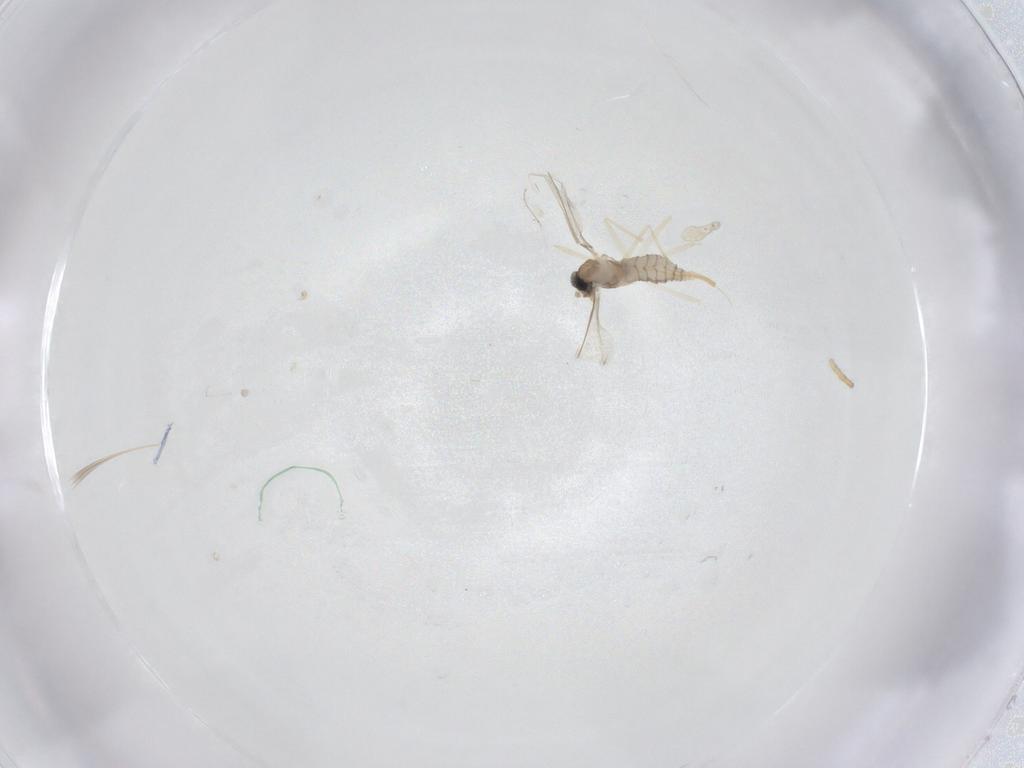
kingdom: Animalia
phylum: Arthropoda
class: Insecta
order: Diptera
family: Cecidomyiidae
